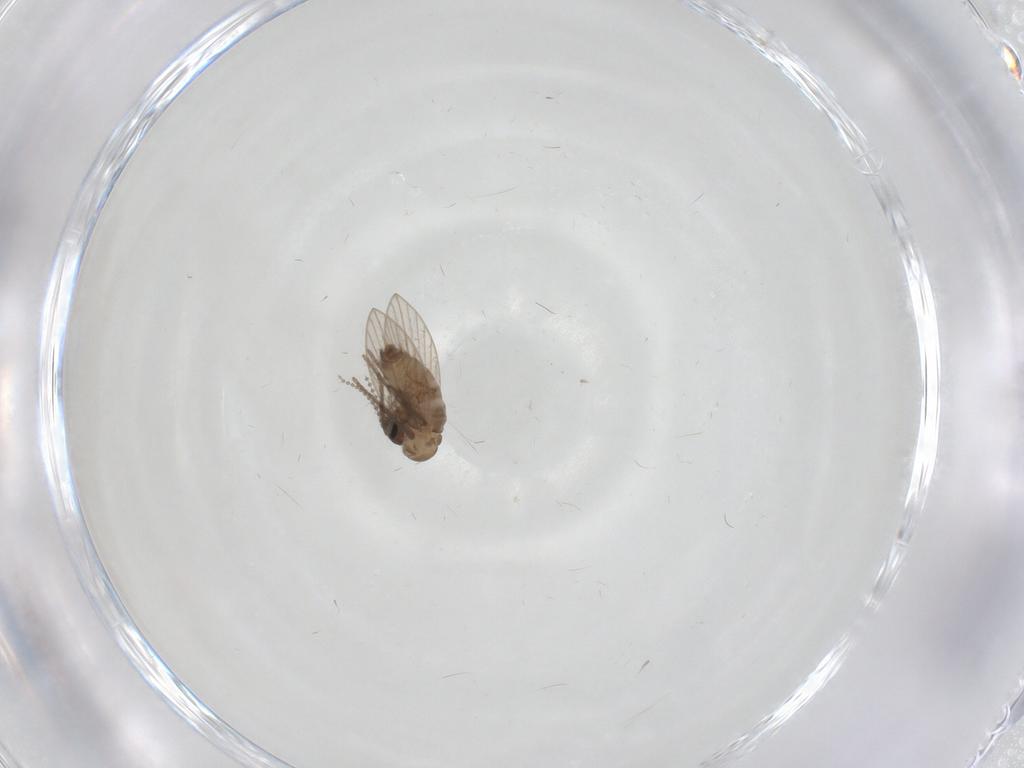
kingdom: Animalia
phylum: Arthropoda
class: Insecta
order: Diptera
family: Psychodidae
